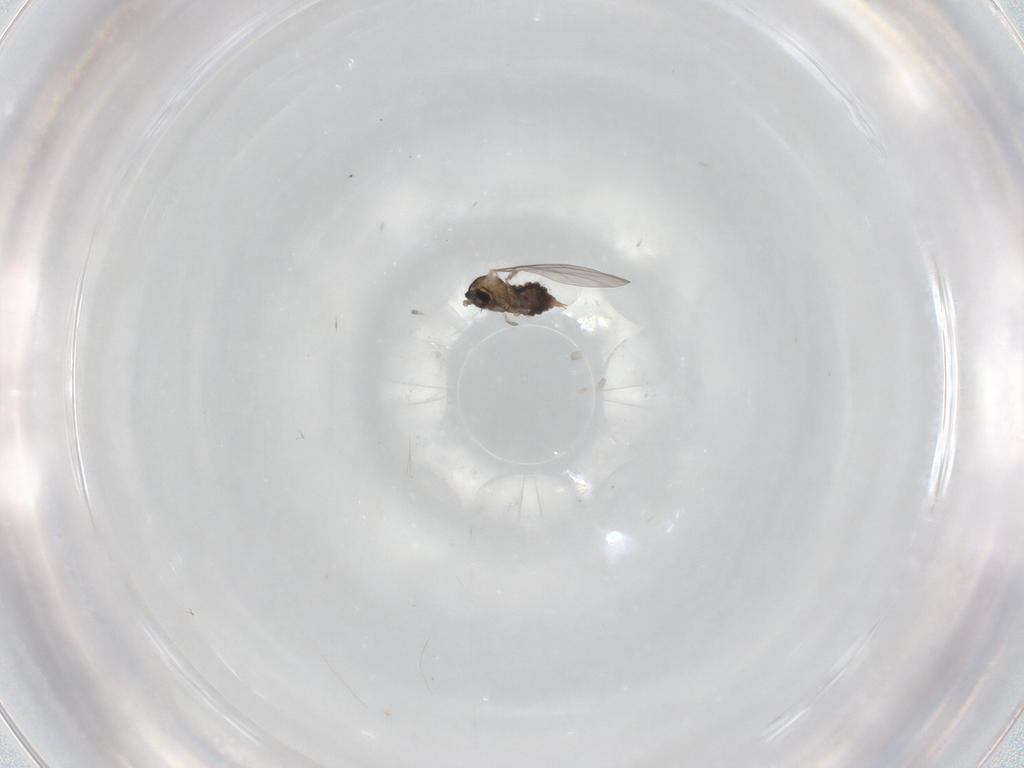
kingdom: Animalia
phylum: Arthropoda
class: Insecta
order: Diptera
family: Cecidomyiidae
